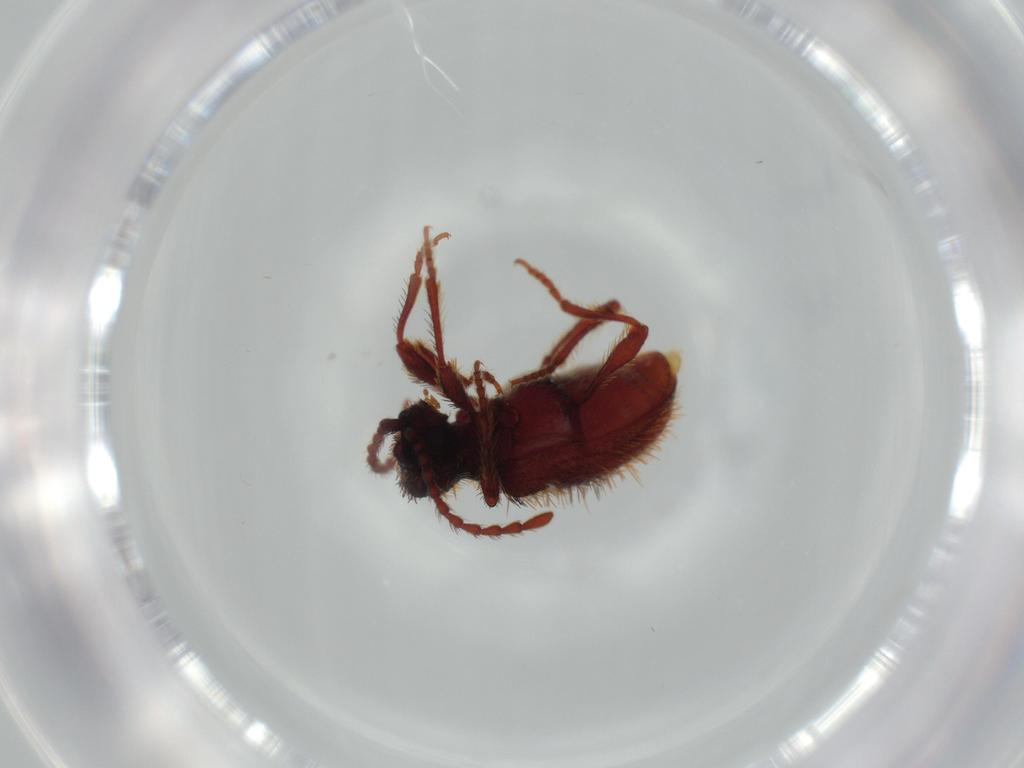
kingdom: Animalia
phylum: Arthropoda
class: Insecta
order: Coleoptera
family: Ptinidae
